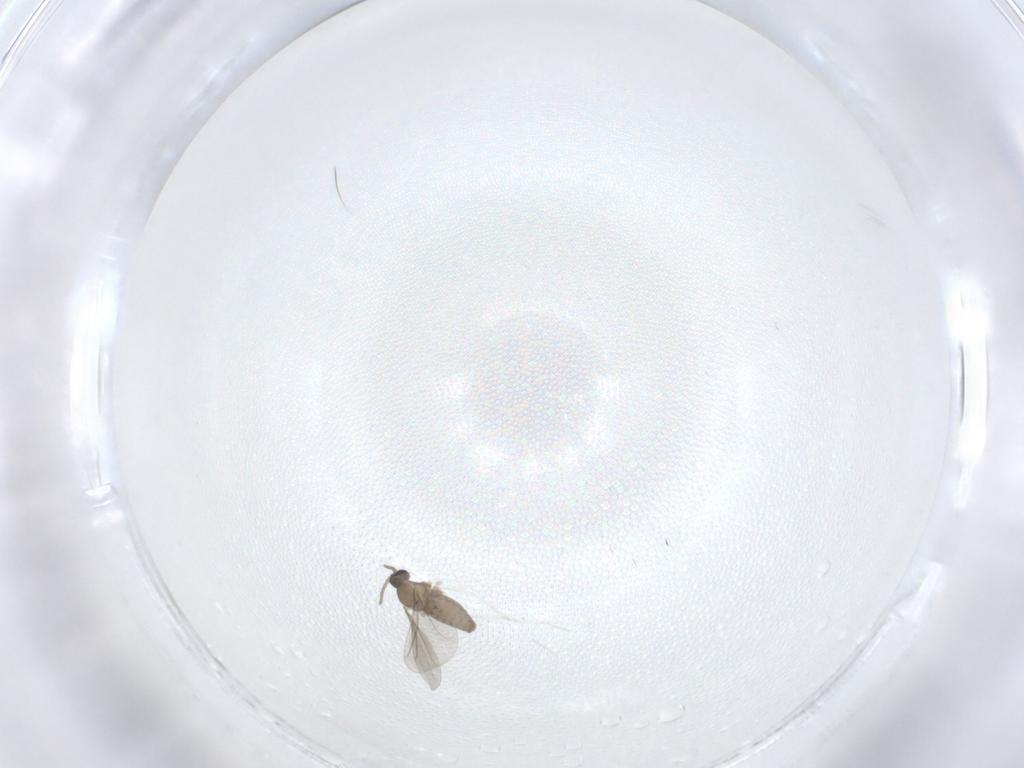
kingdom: Animalia
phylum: Arthropoda
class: Insecta
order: Diptera
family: Cecidomyiidae
